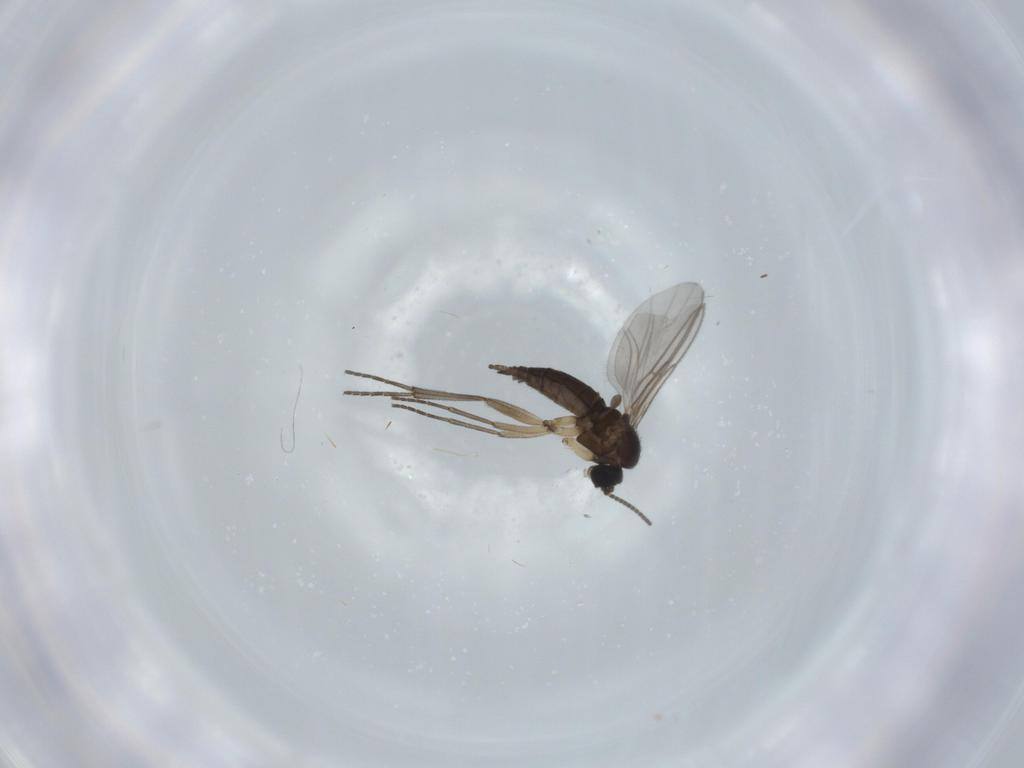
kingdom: Animalia
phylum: Arthropoda
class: Insecta
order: Diptera
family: Sciaridae
